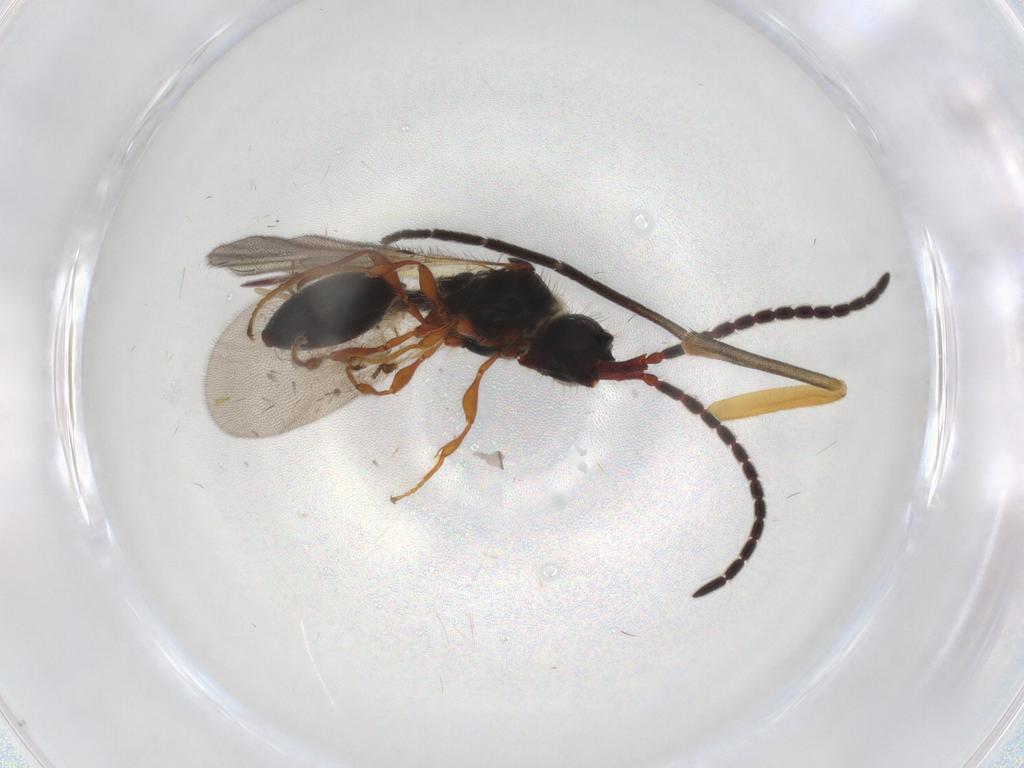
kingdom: Animalia
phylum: Arthropoda
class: Insecta
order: Hymenoptera
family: Diapriidae
